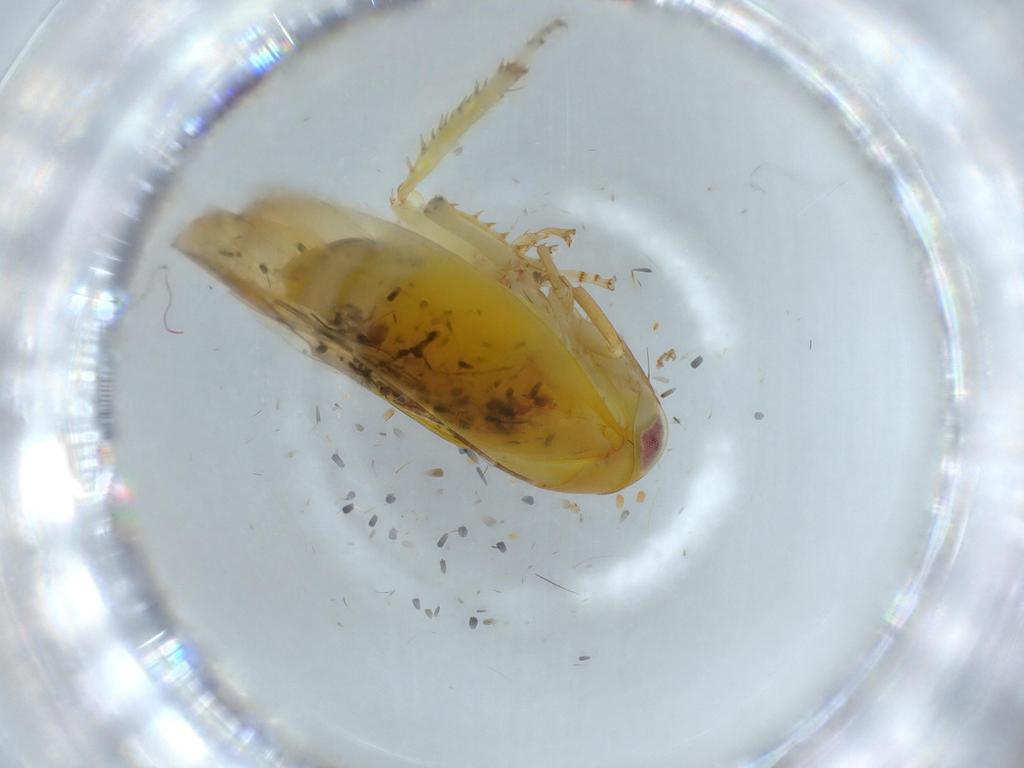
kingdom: Animalia
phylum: Arthropoda
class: Insecta
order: Hemiptera
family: Cicadellidae
